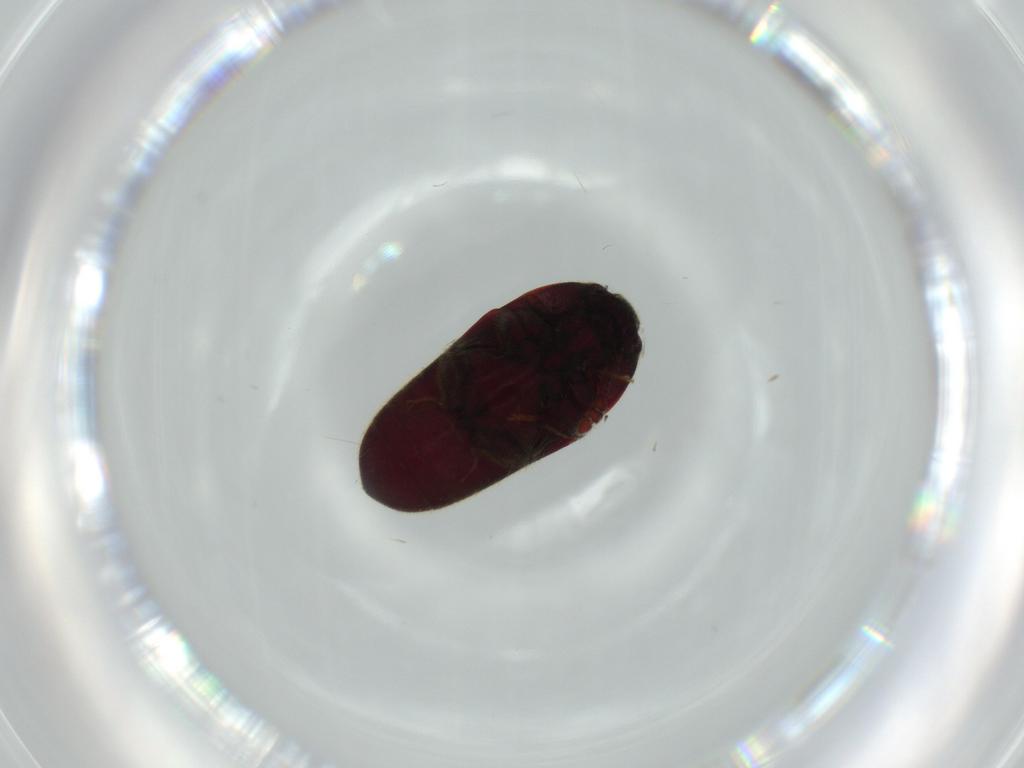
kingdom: Animalia
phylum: Arthropoda
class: Insecta
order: Coleoptera
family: Throscidae
